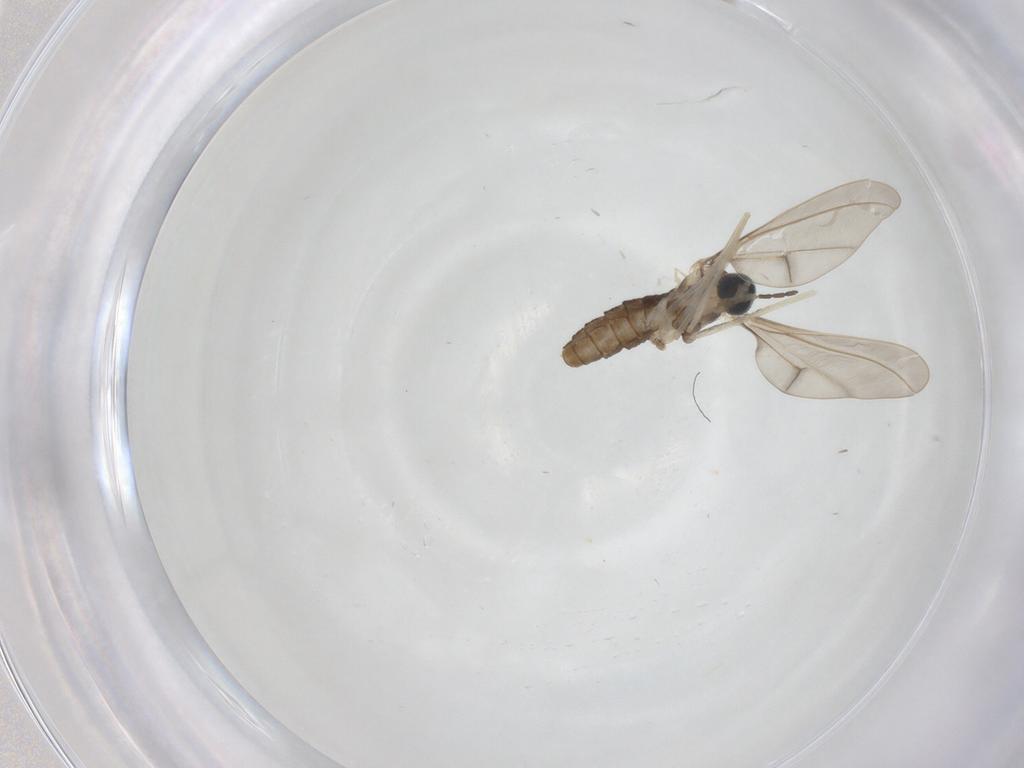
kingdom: Animalia
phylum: Arthropoda
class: Insecta
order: Diptera
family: Cecidomyiidae
